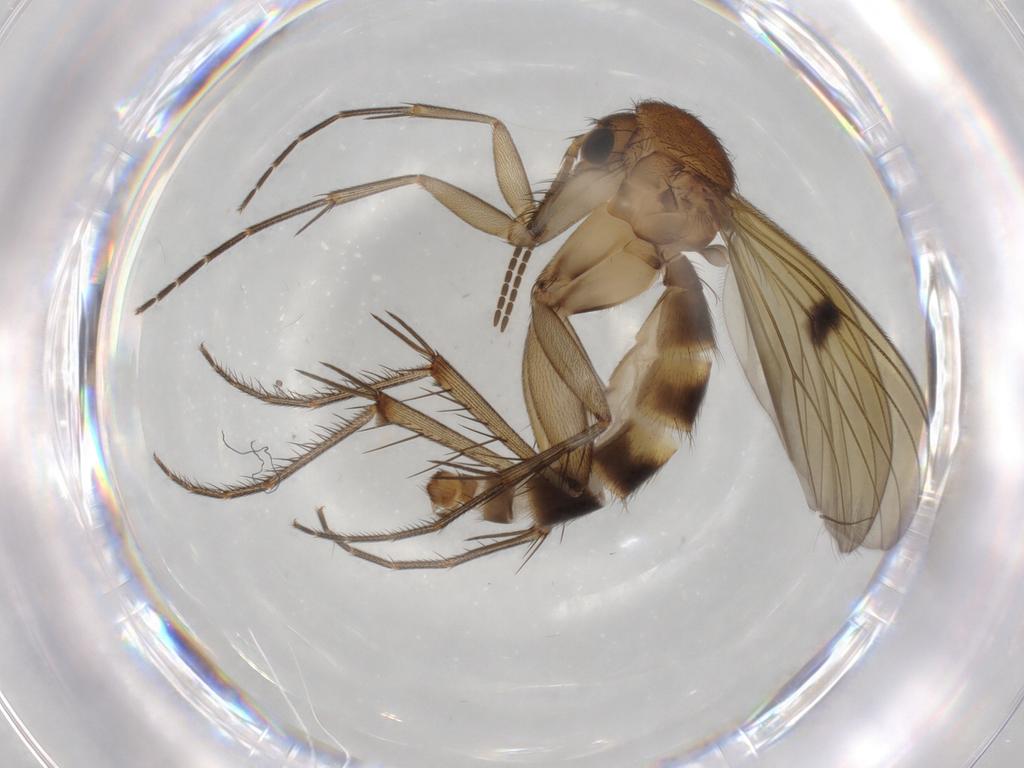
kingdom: Animalia
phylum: Arthropoda
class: Insecta
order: Diptera
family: Mycetophilidae
